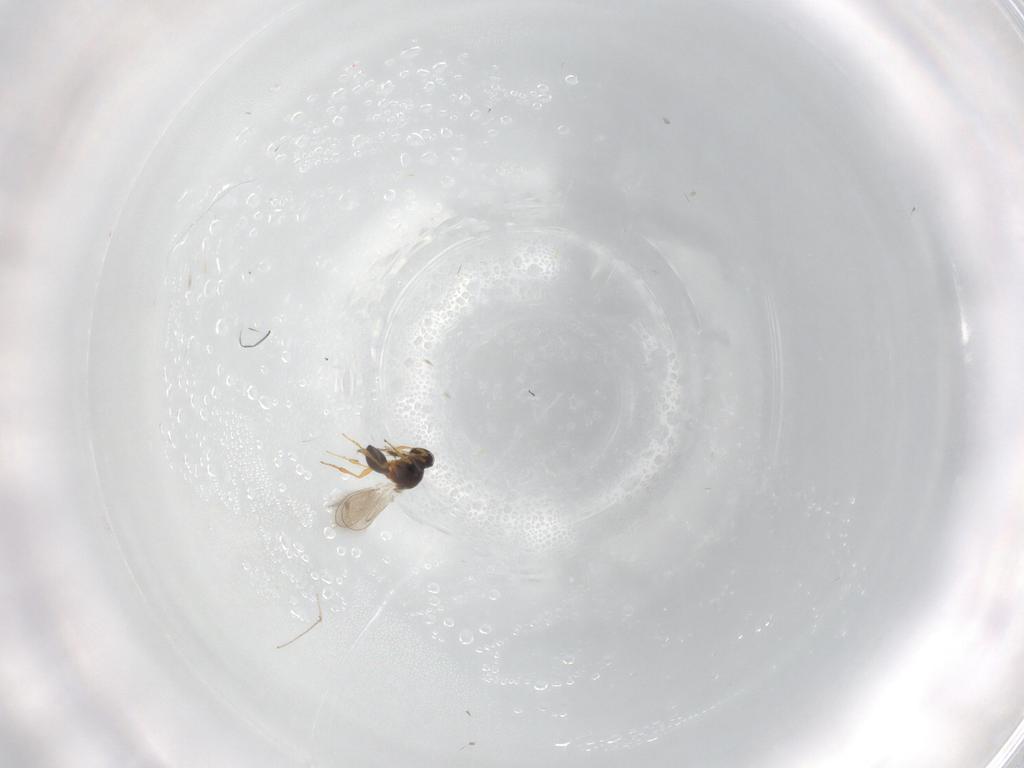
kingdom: Animalia
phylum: Arthropoda
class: Insecta
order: Hymenoptera
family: Platygastridae
